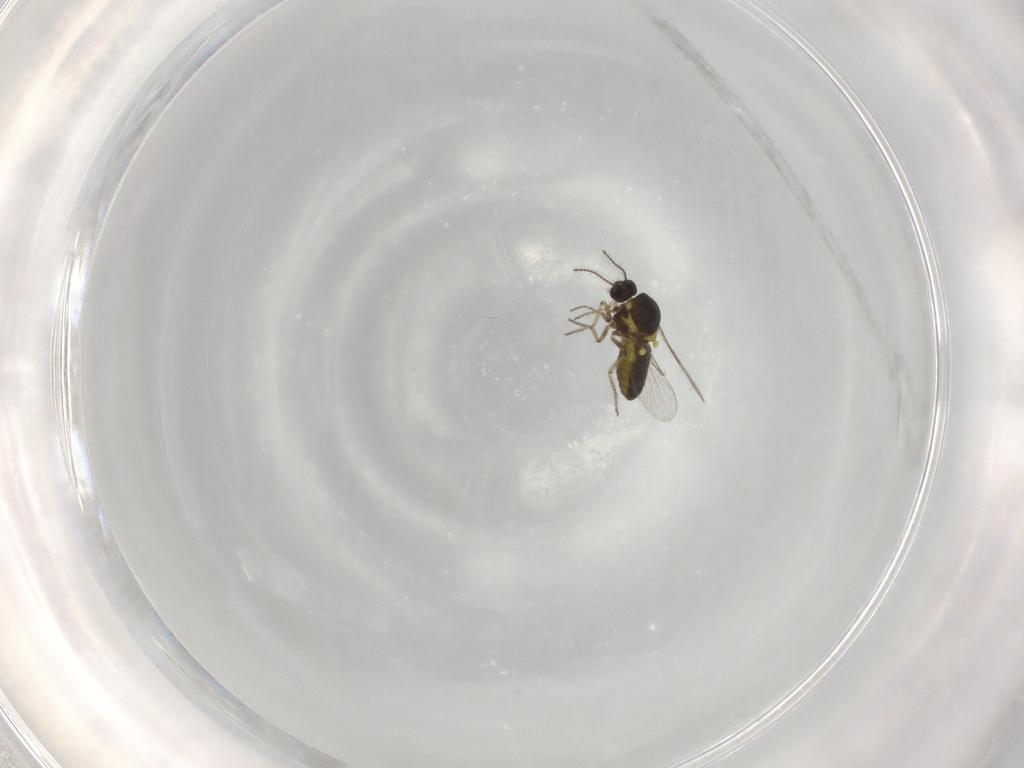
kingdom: Animalia
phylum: Arthropoda
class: Insecta
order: Diptera
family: Ceratopogonidae
